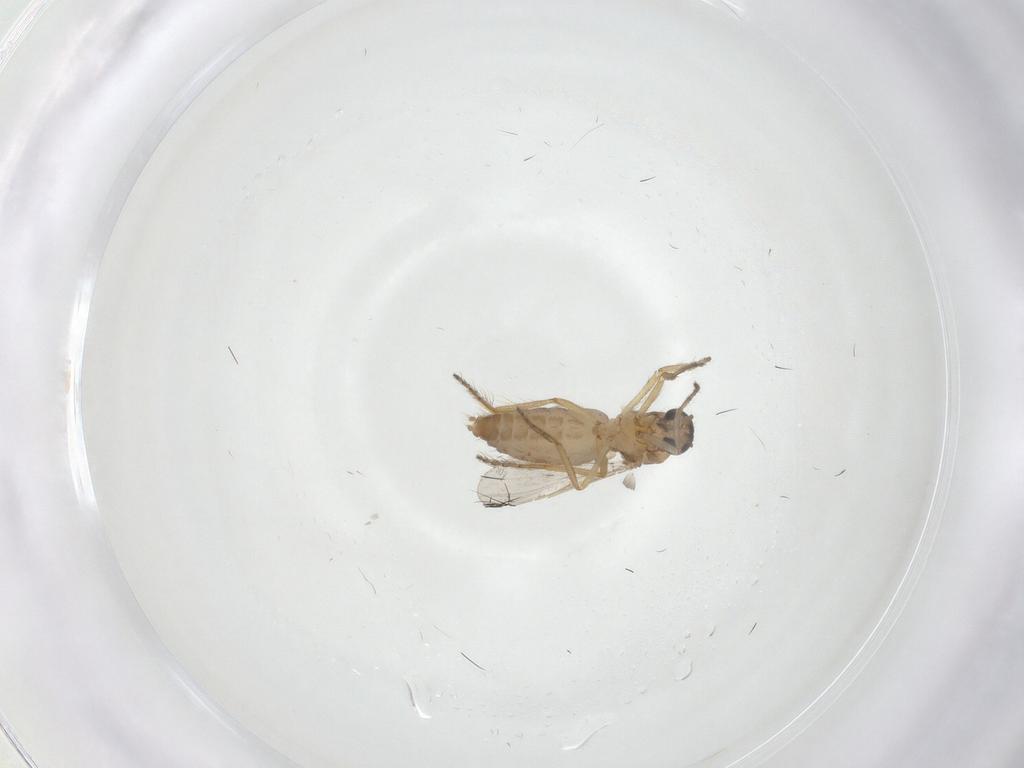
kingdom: Animalia
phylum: Arthropoda
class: Insecta
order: Diptera
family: Ceratopogonidae
